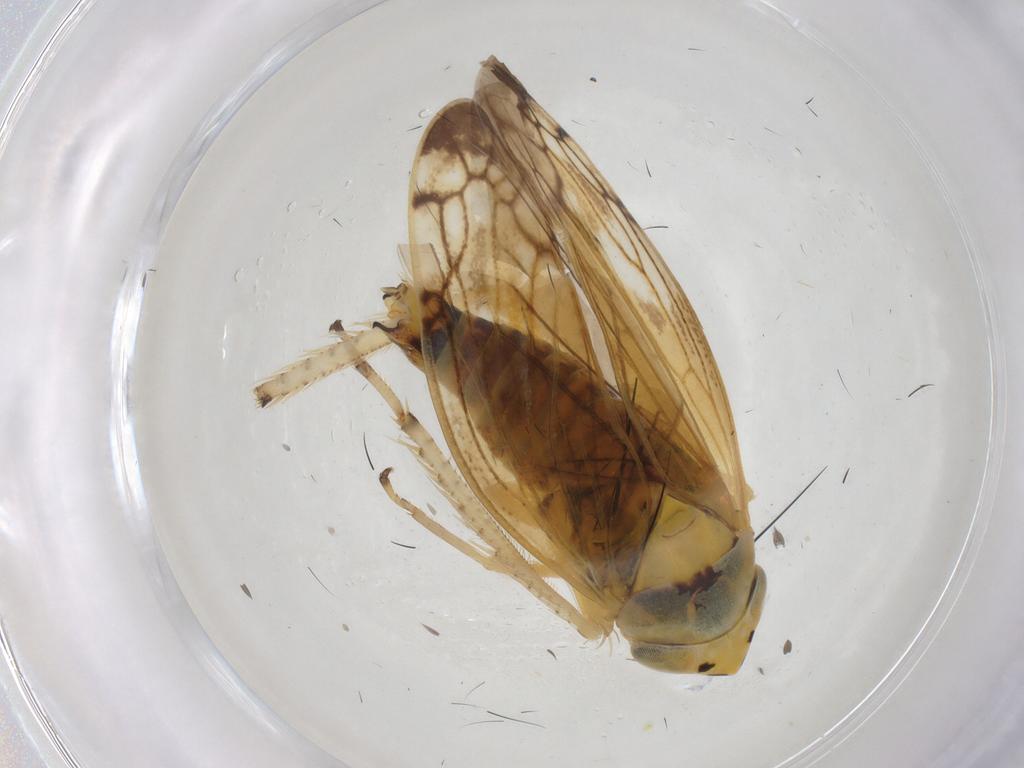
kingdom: Animalia
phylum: Arthropoda
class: Insecta
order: Hemiptera
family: Cicadellidae
